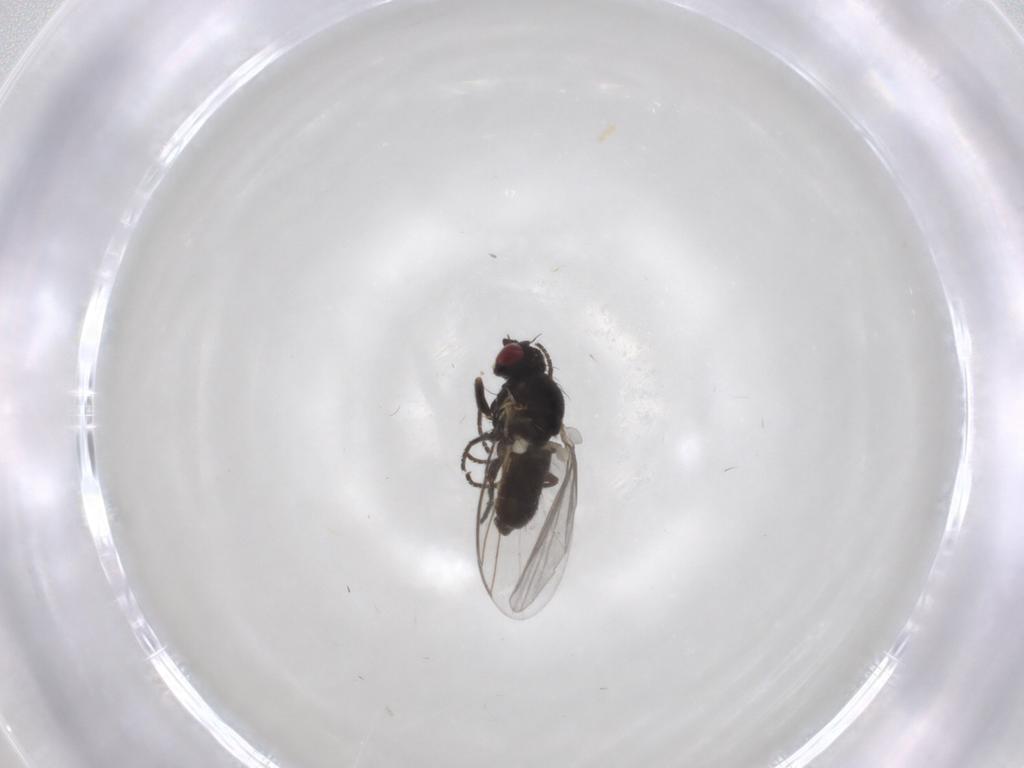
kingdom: Animalia
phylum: Arthropoda
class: Insecta
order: Diptera
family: Agromyzidae
